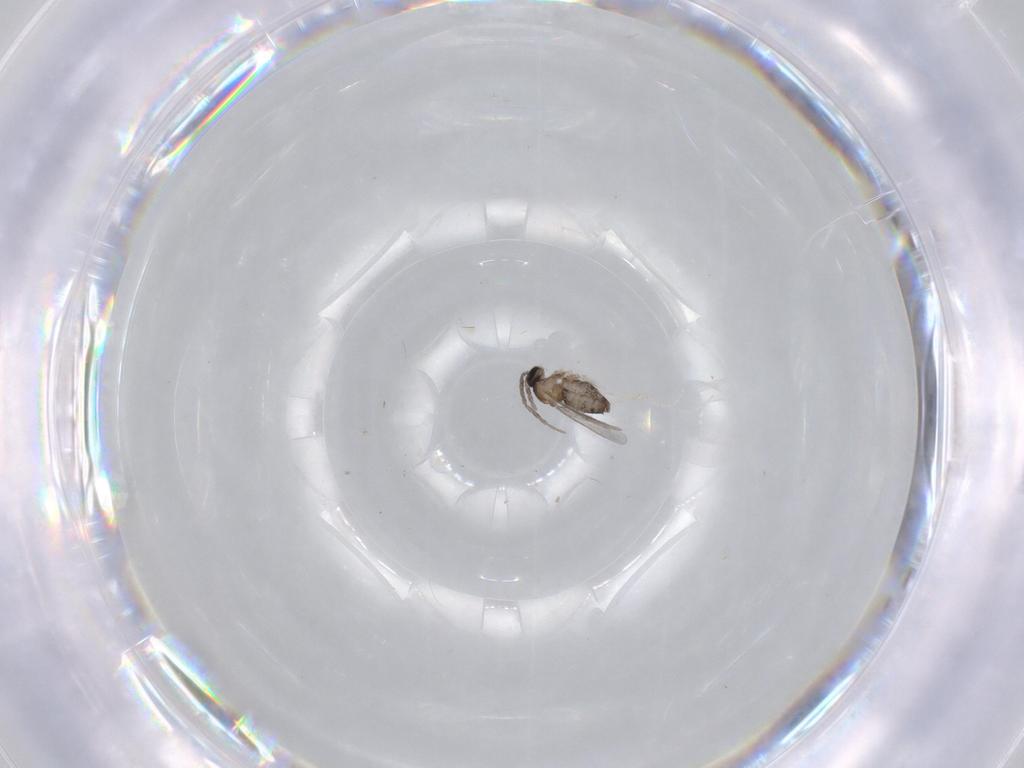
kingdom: Animalia
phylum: Arthropoda
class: Insecta
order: Diptera
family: Cecidomyiidae
